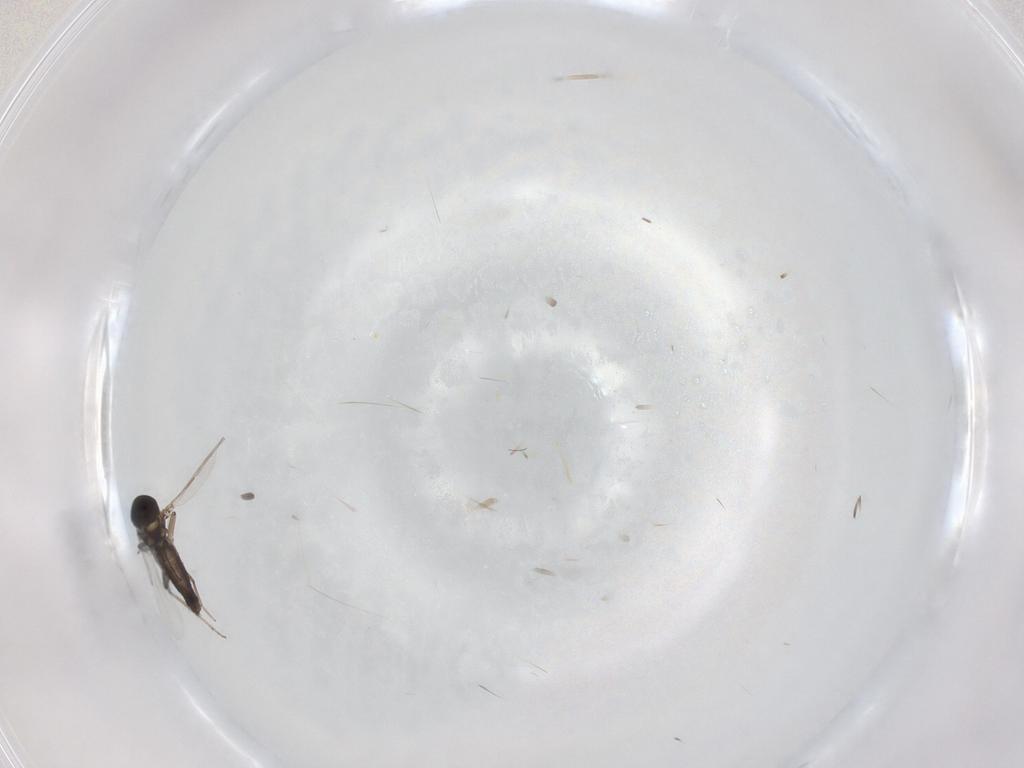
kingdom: Animalia
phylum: Arthropoda
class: Insecta
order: Diptera
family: Ceratopogonidae
